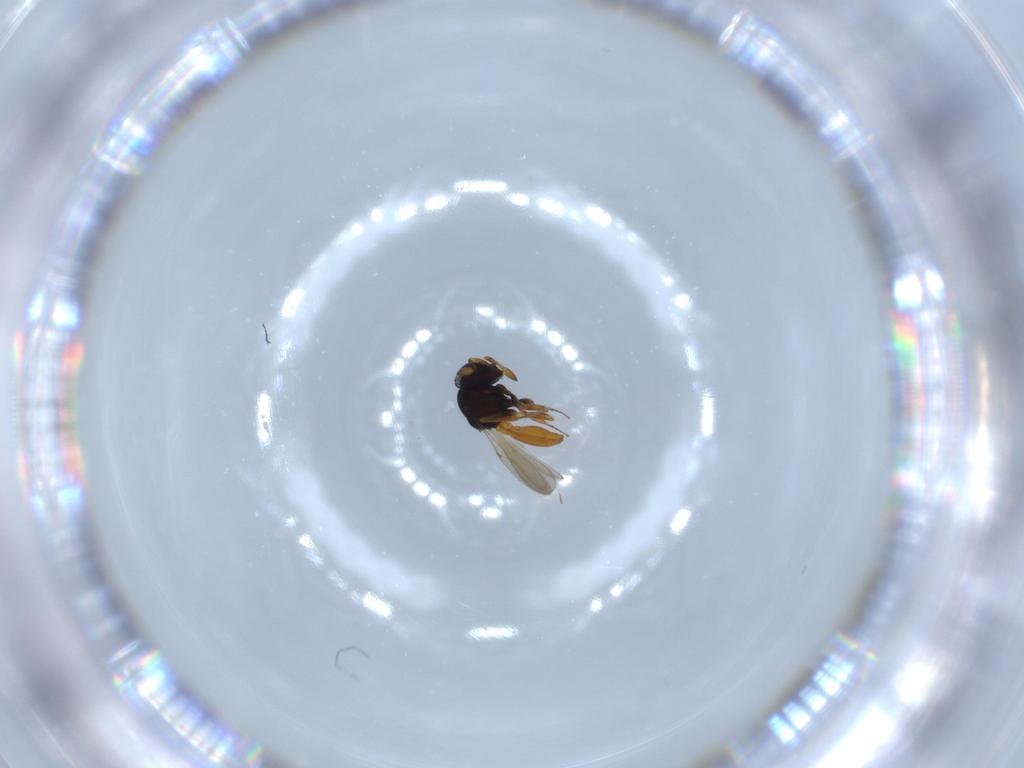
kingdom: Animalia
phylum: Arthropoda
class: Insecta
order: Hymenoptera
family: Scelionidae
